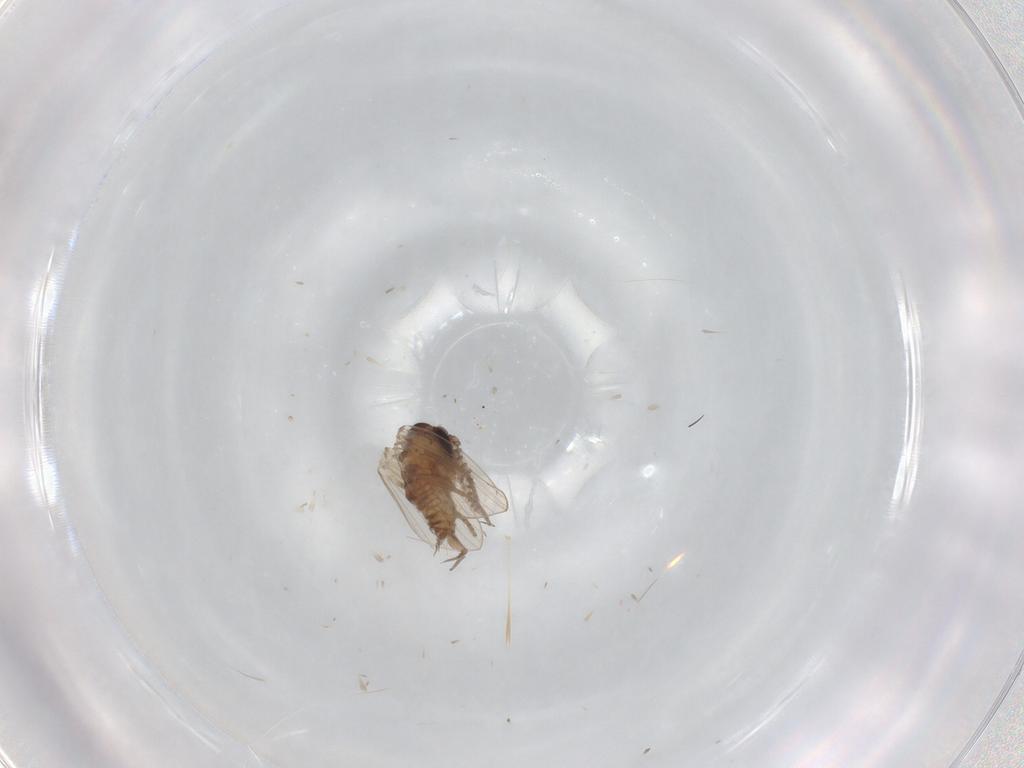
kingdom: Animalia
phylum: Arthropoda
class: Insecta
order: Diptera
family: Psychodidae
